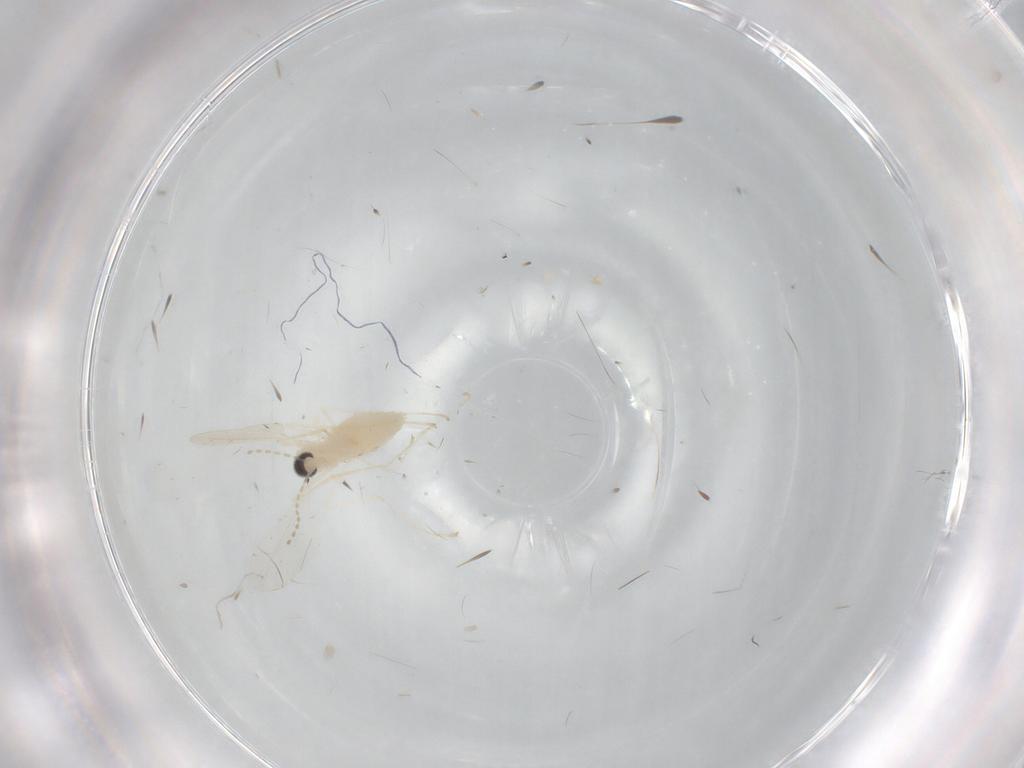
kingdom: Animalia
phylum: Arthropoda
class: Insecta
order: Diptera
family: Cecidomyiidae
